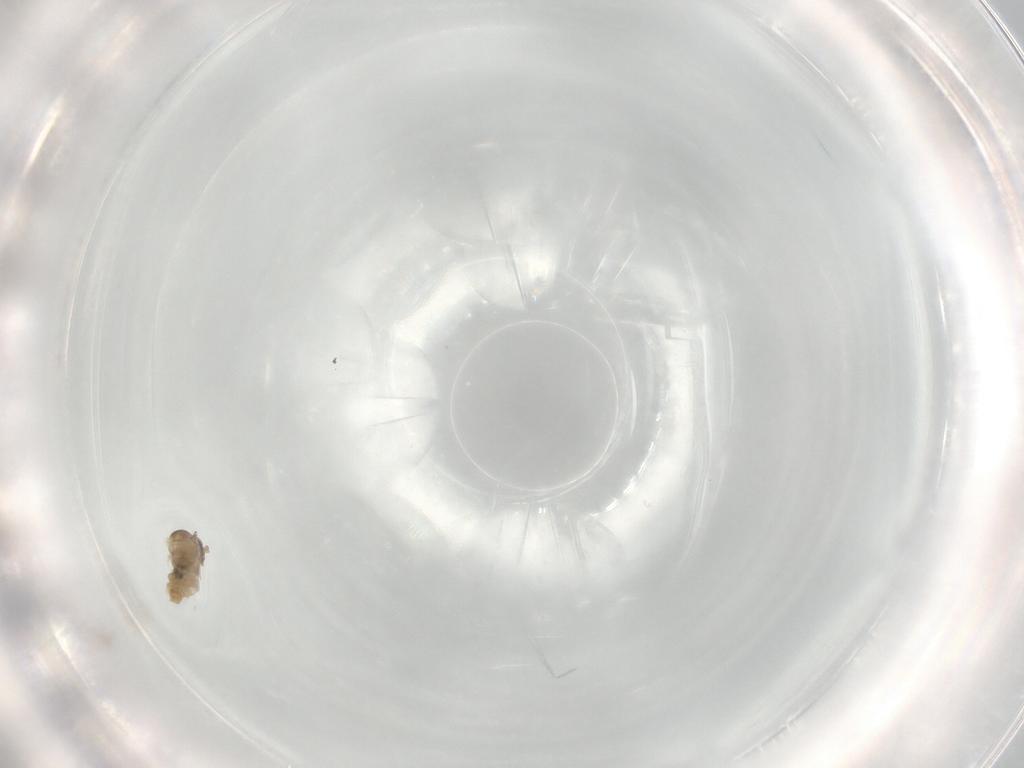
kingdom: Animalia
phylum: Arthropoda
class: Insecta
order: Diptera
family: Cecidomyiidae
